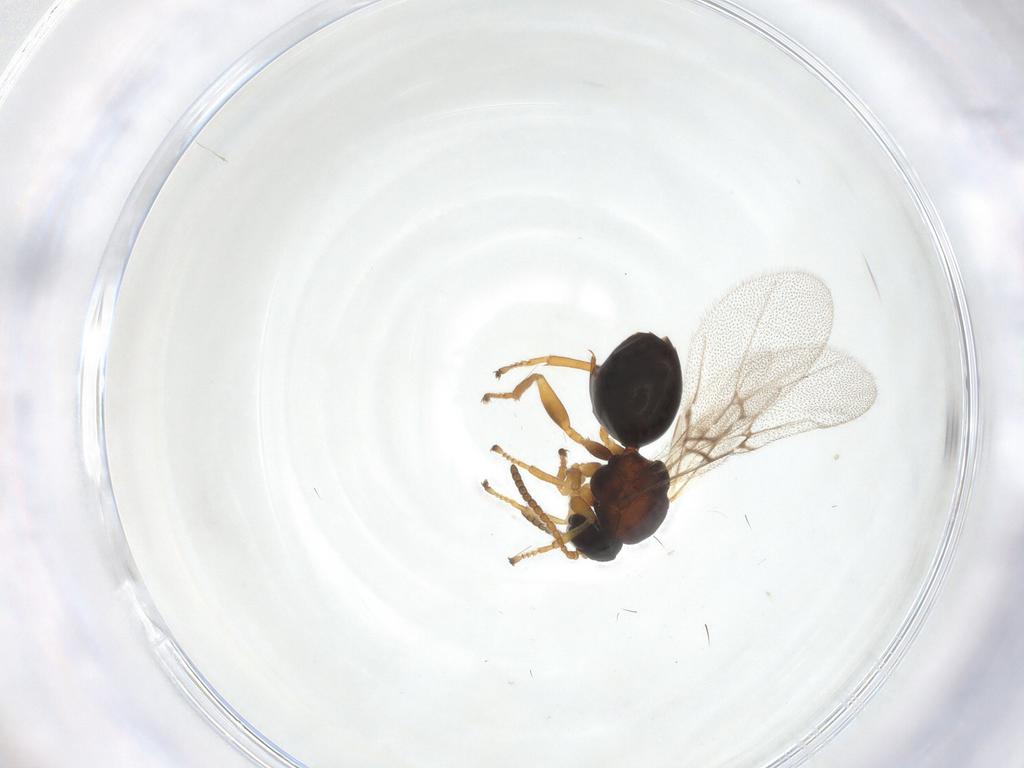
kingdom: Animalia
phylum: Arthropoda
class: Insecta
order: Hymenoptera
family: Cynipidae
